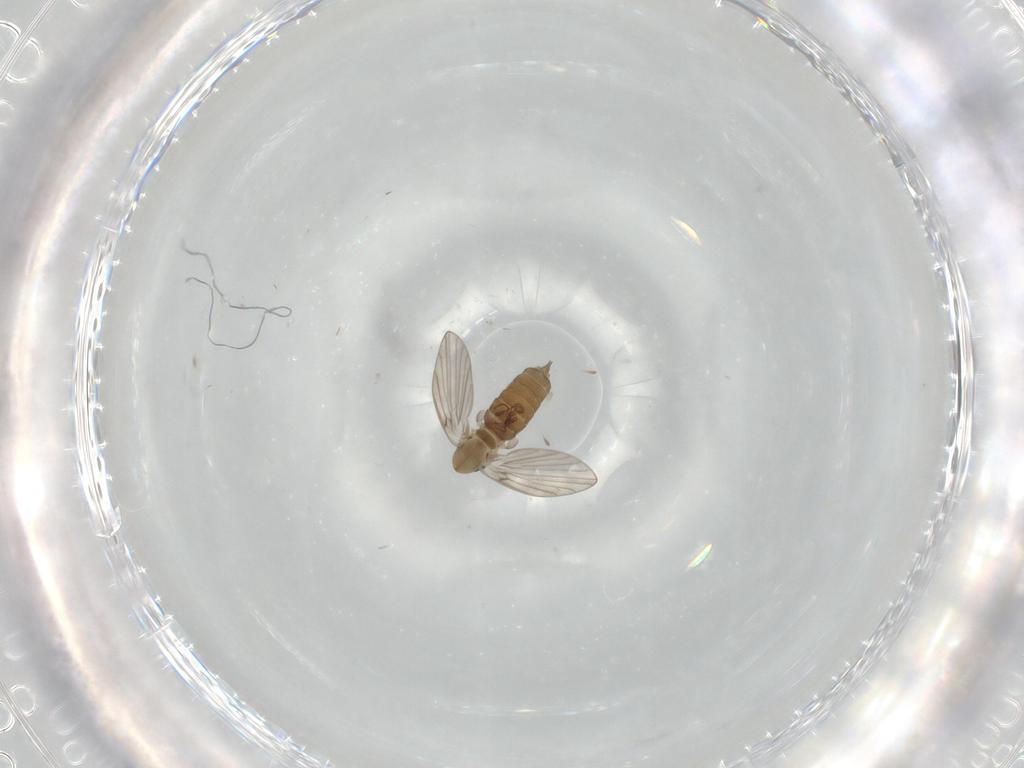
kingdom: Animalia
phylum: Arthropoda
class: Insecta
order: Diptera
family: Psychodidae
